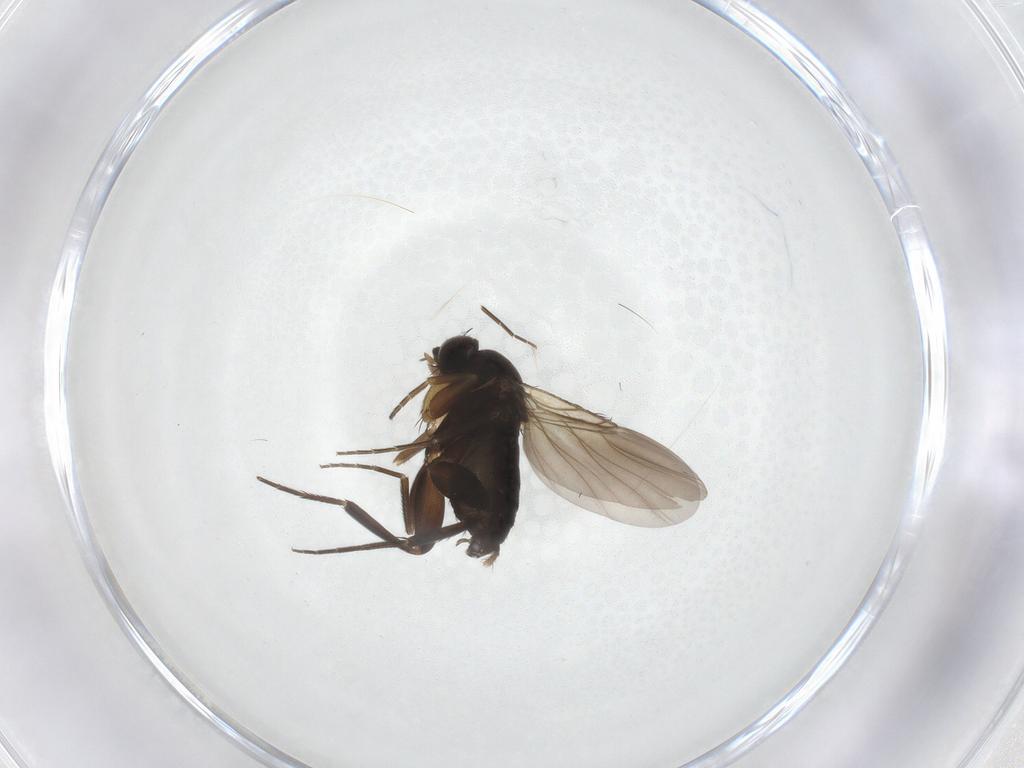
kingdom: Animalia
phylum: Arthropoda
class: Insecta
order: Diptera
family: Phoridae
